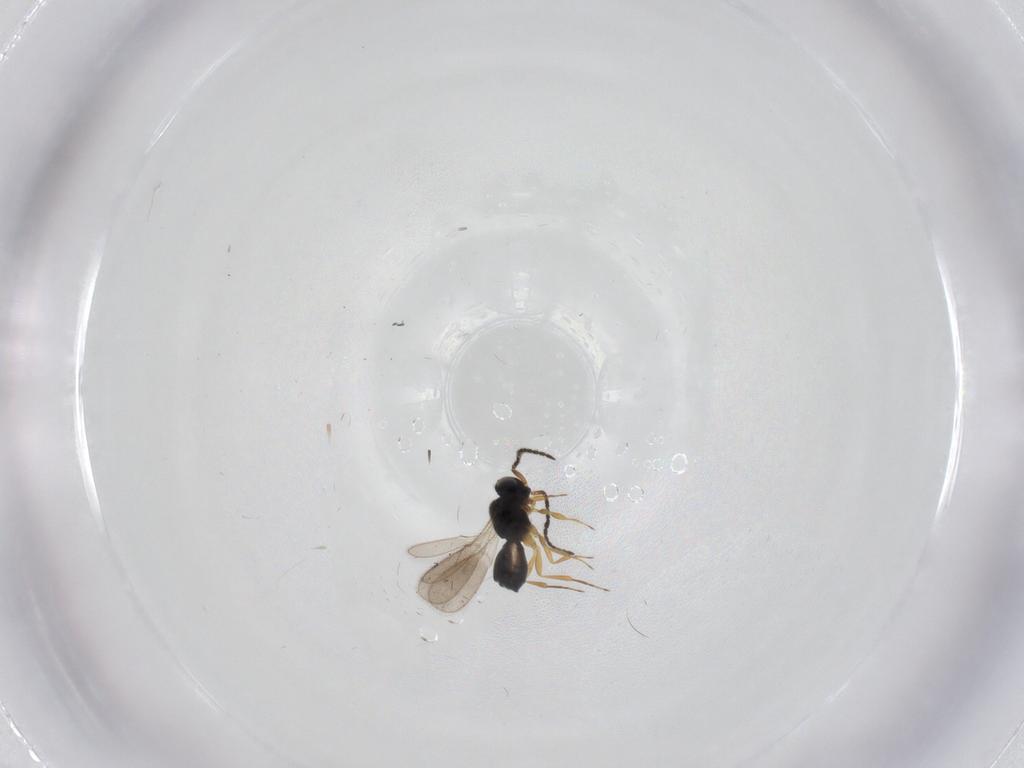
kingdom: Animalia
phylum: Arthropoda
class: Insecta
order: Hymenoptera
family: Scelionidae
